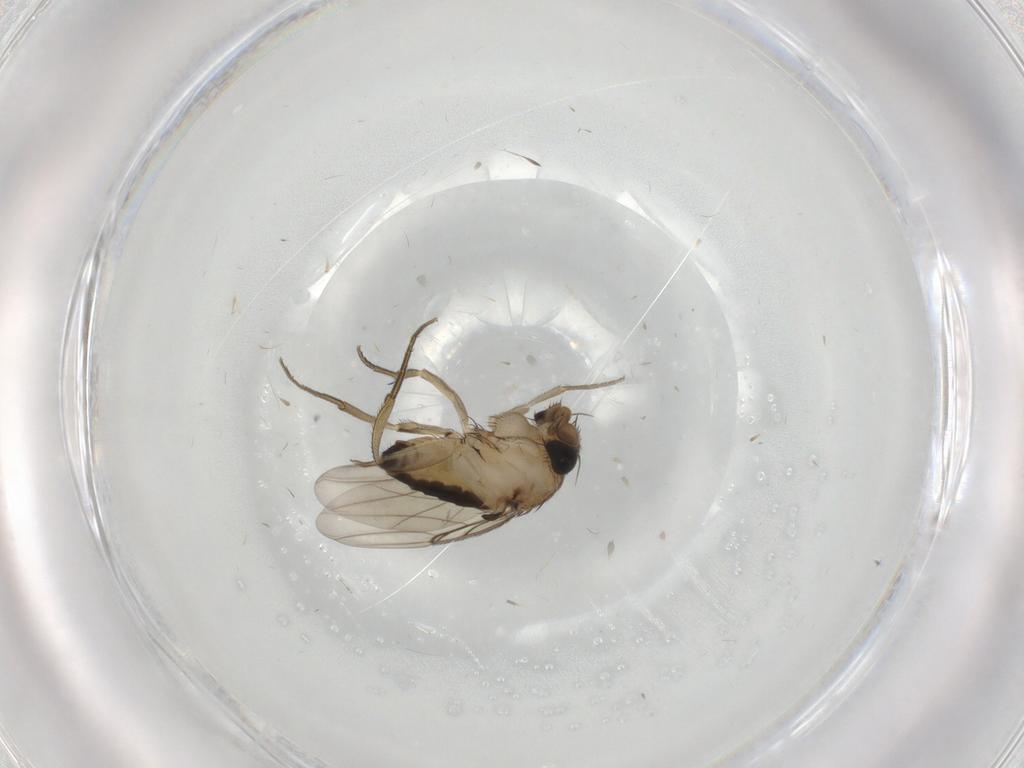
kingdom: Animalia
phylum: Arthropoda
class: Insecta
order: Diptera
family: Phoridae
